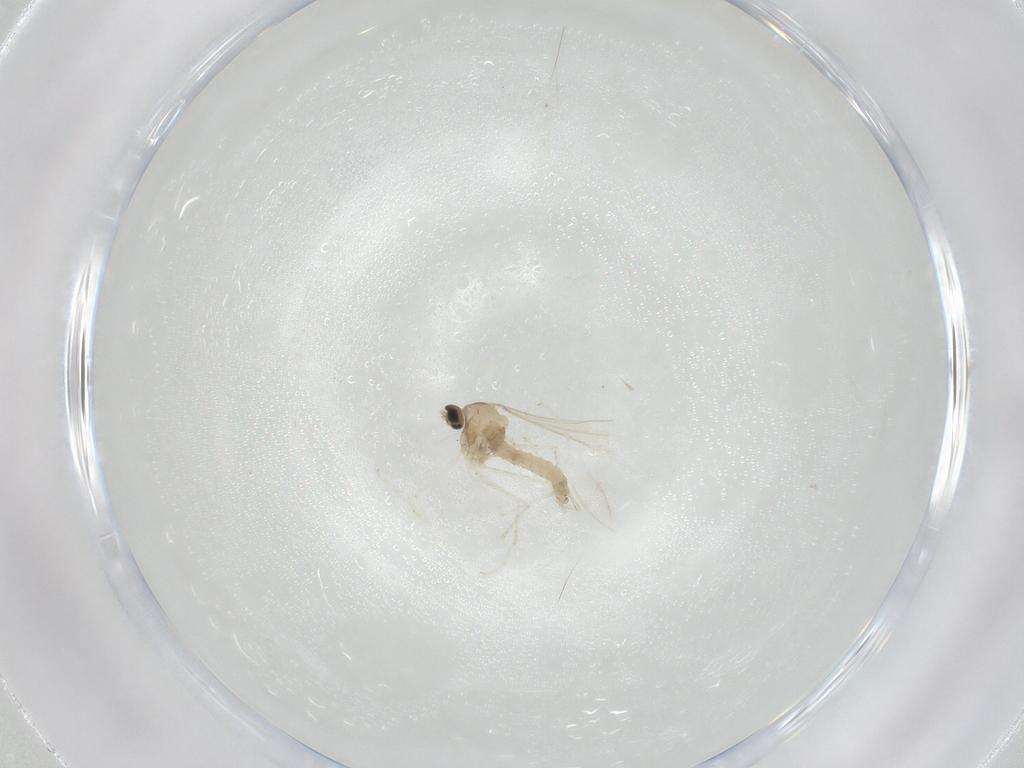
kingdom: Animalia
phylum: Arthropoda
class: Insecta
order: Diptera
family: Cecidomyiidae
